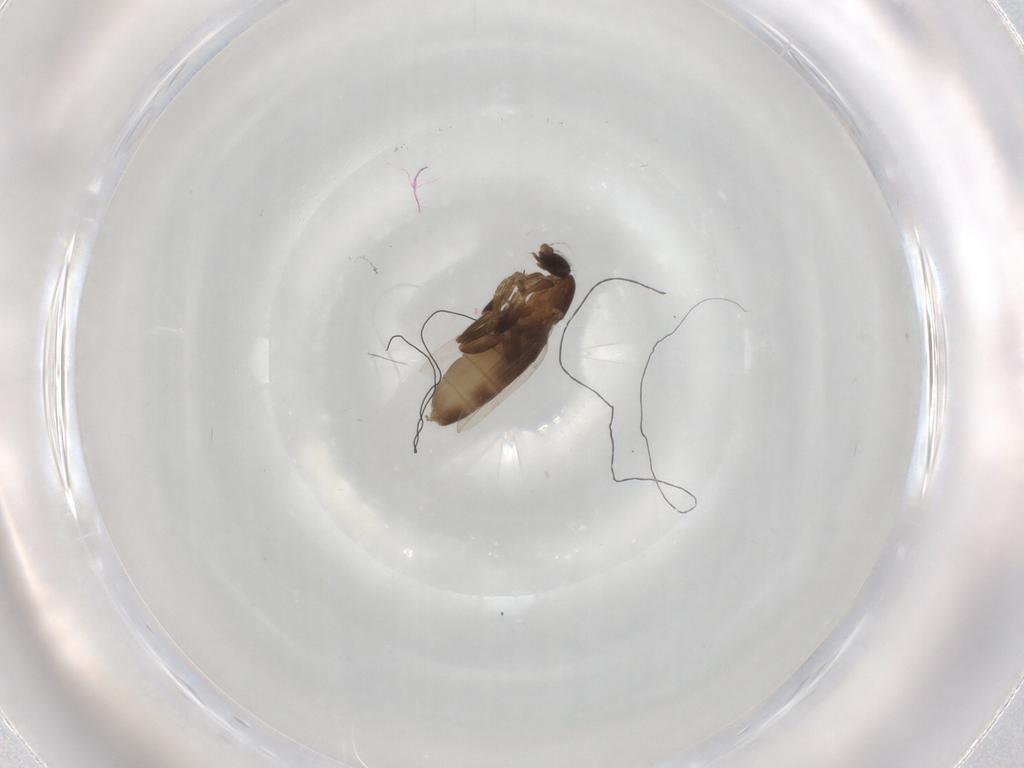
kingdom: Animalia
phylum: Arthropoda
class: Insecta
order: Diptera
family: Phoridae
